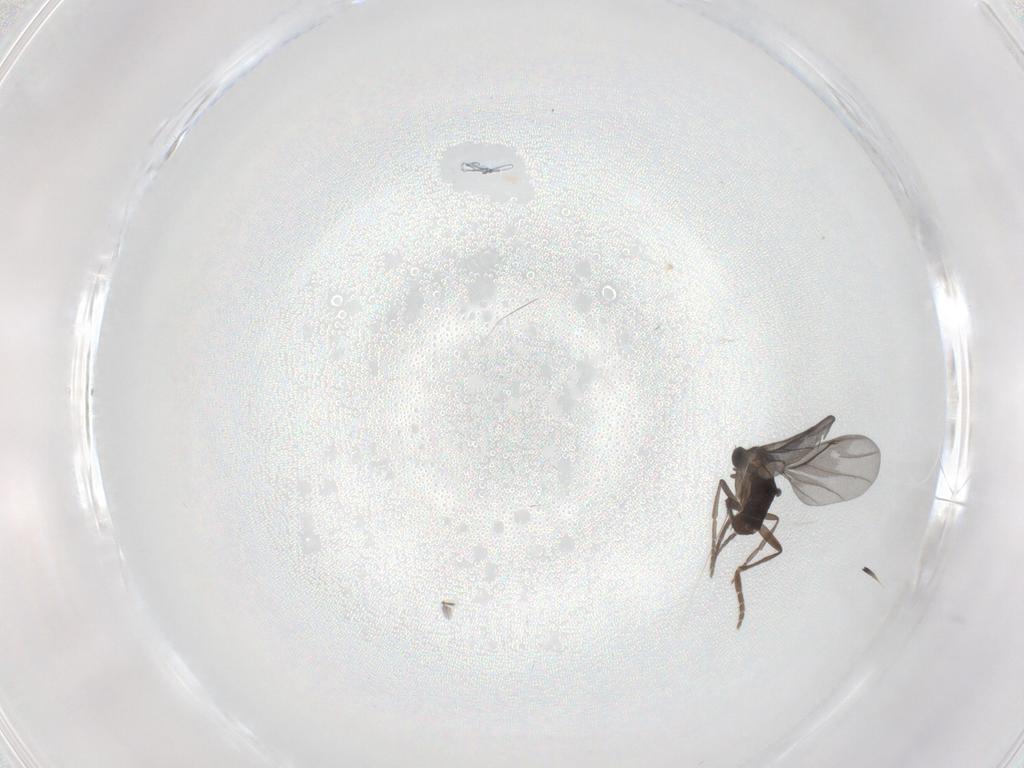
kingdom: Animalia
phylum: Arthropoda
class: Insecta
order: Diptera
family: Phoridae
